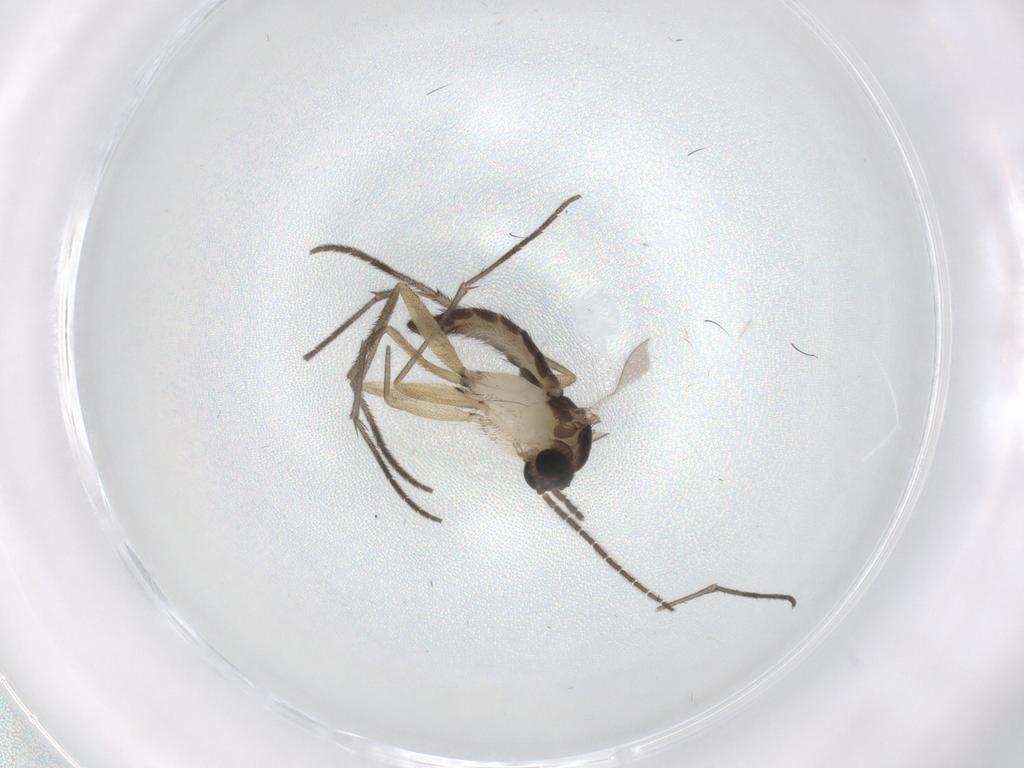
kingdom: Animalia
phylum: Arthropoda
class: Insecta
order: Diptera
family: Sciaridae
